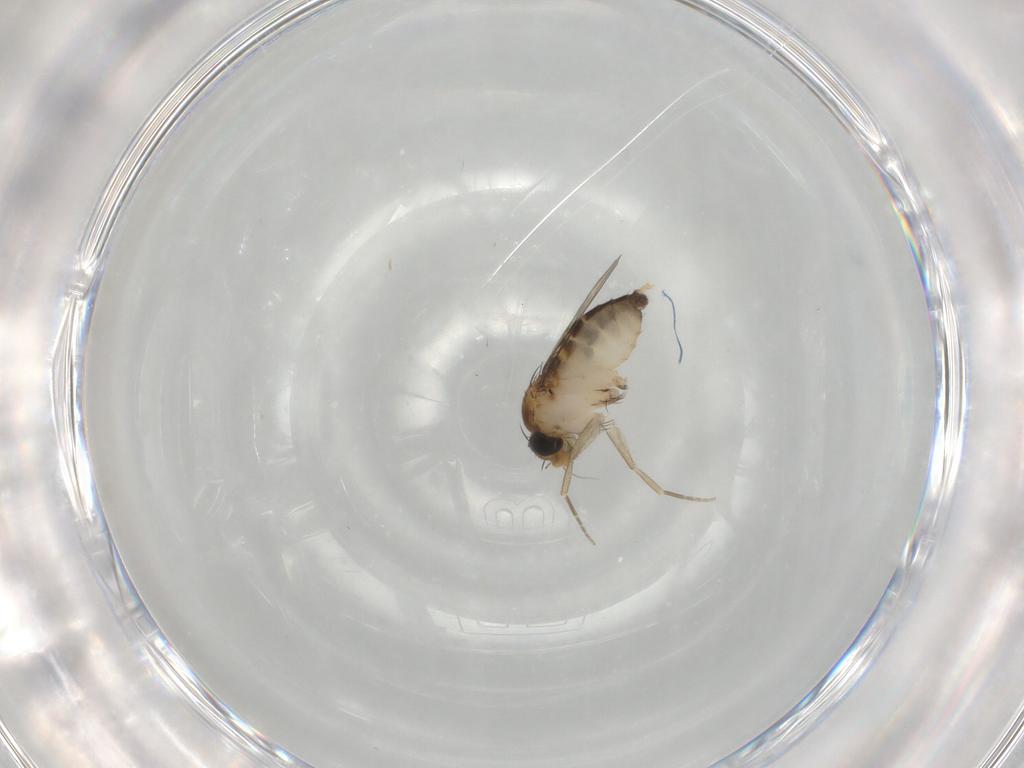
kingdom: Animalia
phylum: Arthropoda
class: Insecta
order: Diptera
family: Phoridae
